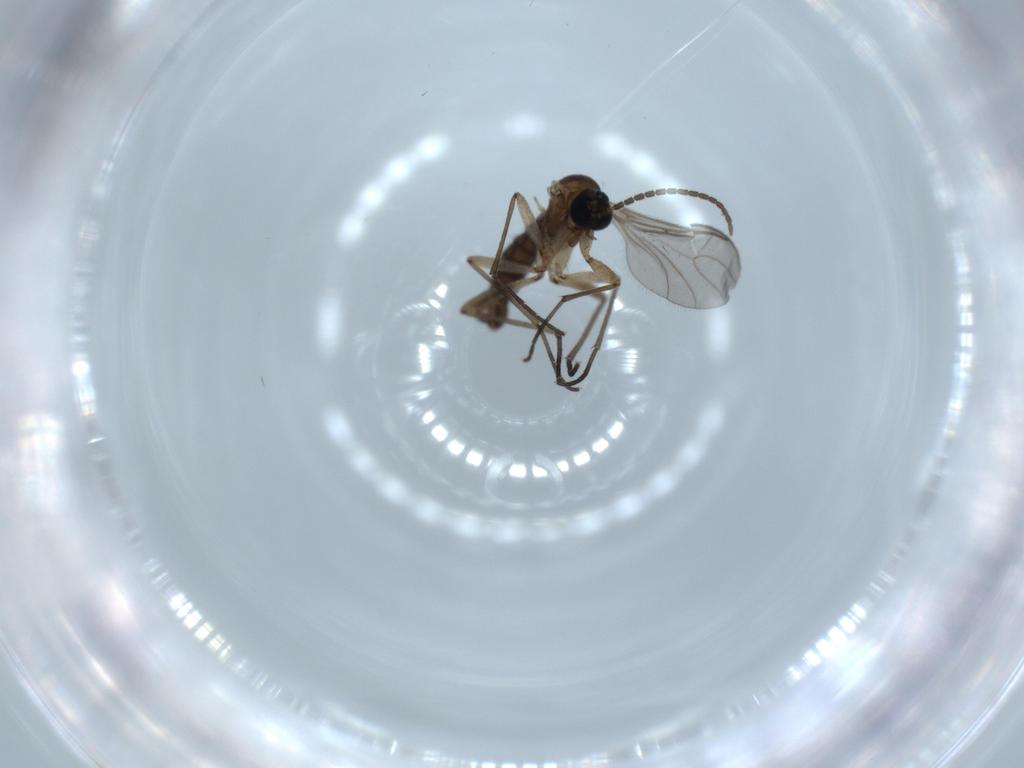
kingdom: Animalia
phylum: Arthropoda
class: Insecta
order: Diptera
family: Sciaridae
